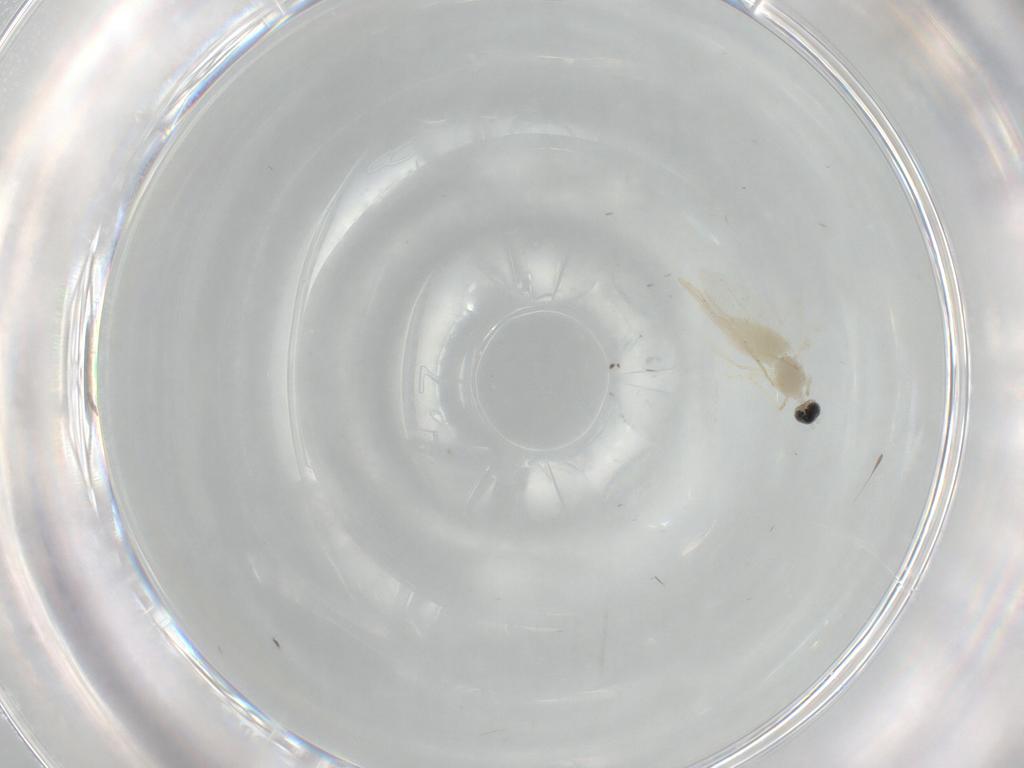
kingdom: Animalia
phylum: Arthropoda
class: Insecta
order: Diptera
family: Cecidomyiidae
